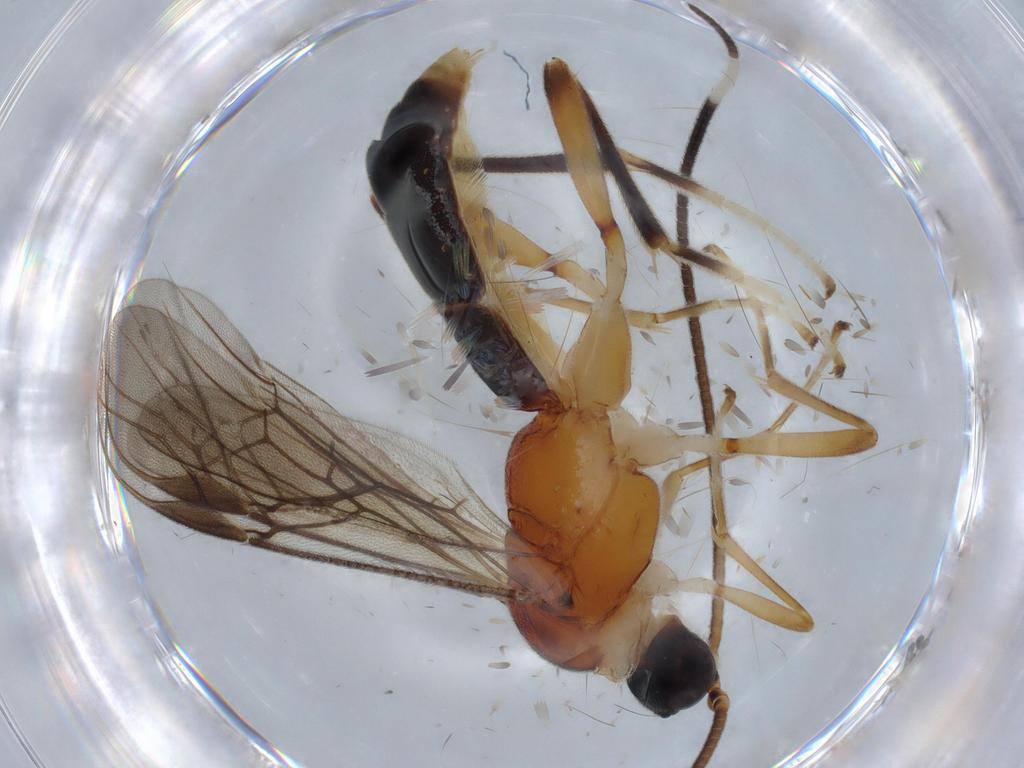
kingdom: Animalia
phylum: Arthropoda
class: Insecta
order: Hymenoptera
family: Braconidae
